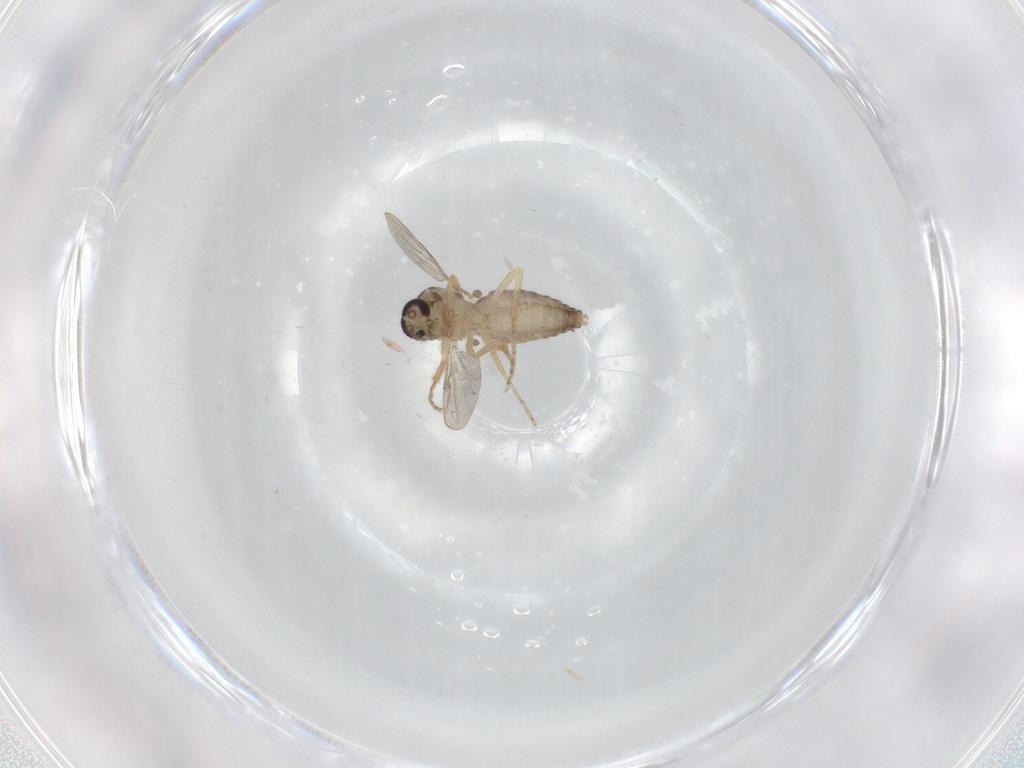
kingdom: Animalia
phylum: Arthropoda
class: Insecta
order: Diptera
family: Ceratopogonidae
